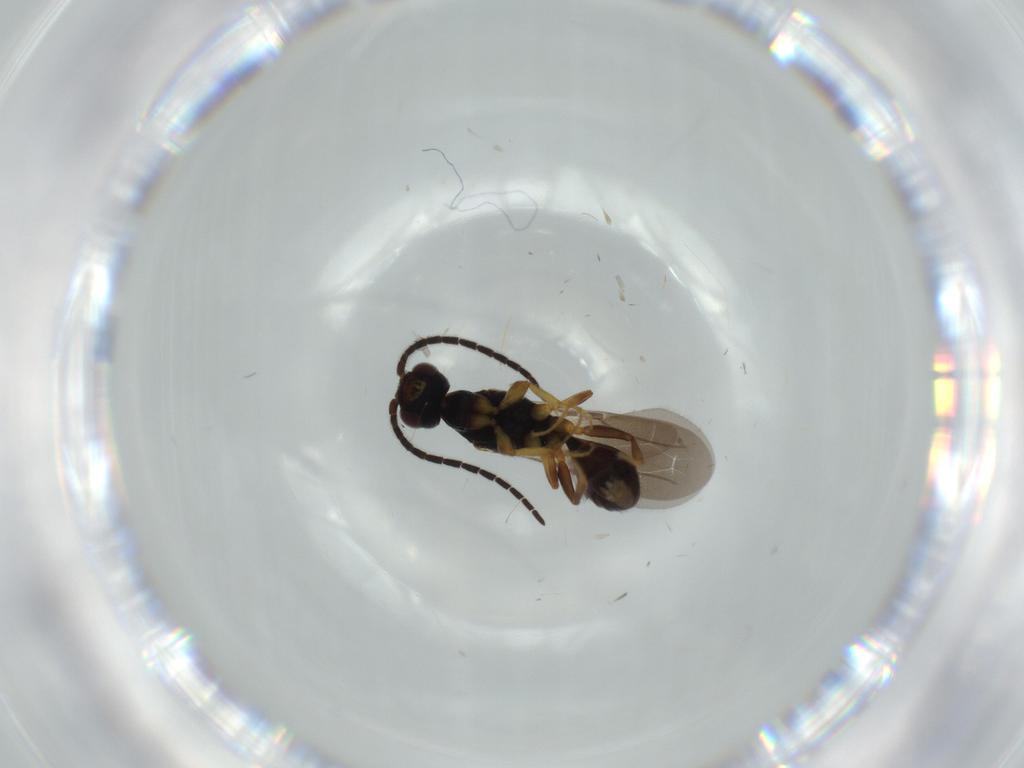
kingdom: Animalia
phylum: Arthropoda
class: Insecta
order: Hymenoptera
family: Bethylidae
